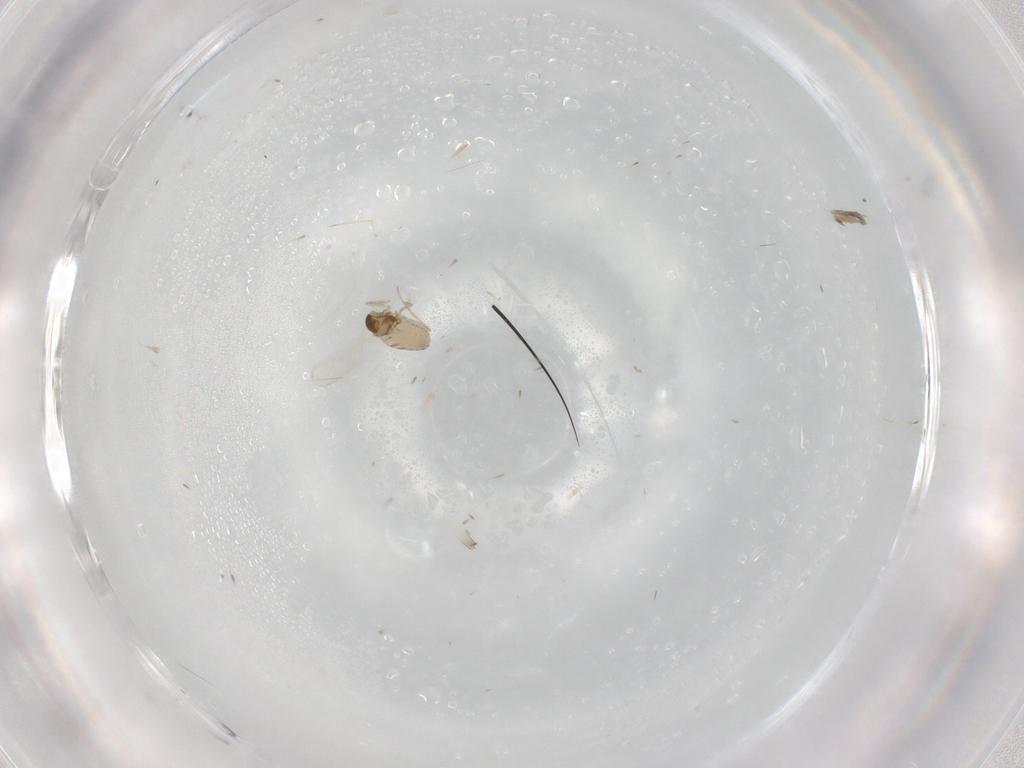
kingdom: Animalia
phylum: Arthropoda
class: Insecta
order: Diptera
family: Cecidomyiidae
